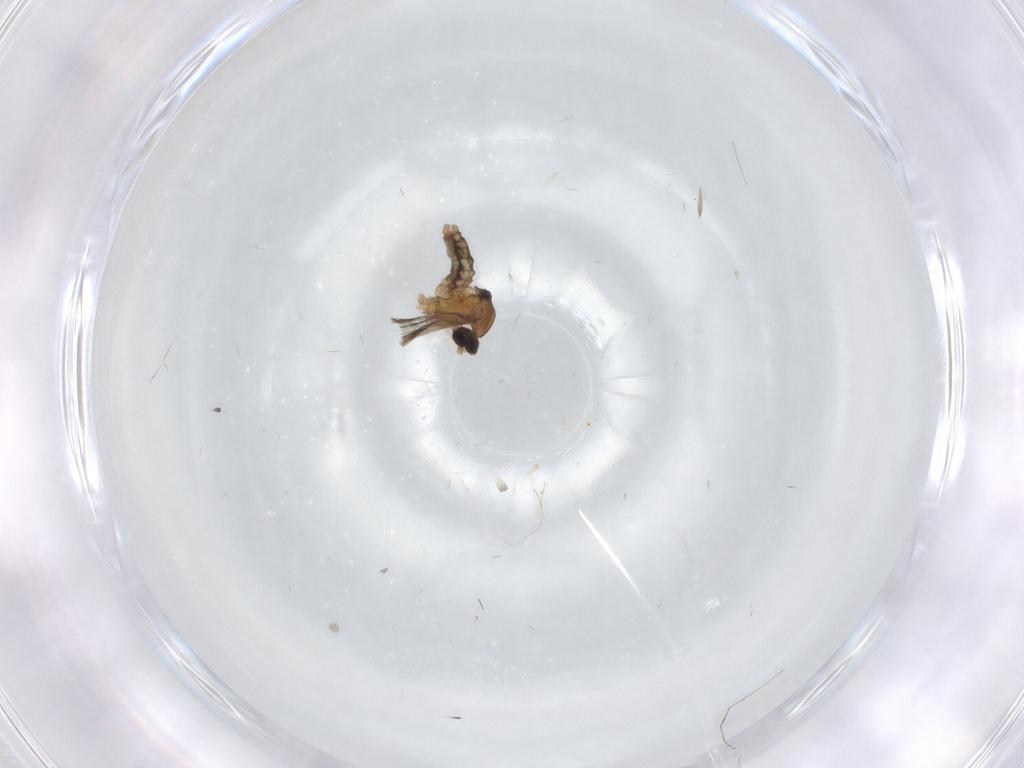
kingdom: Animalia
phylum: Arthropoda
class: Insecta
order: Diptera
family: Cecidomyiidae
